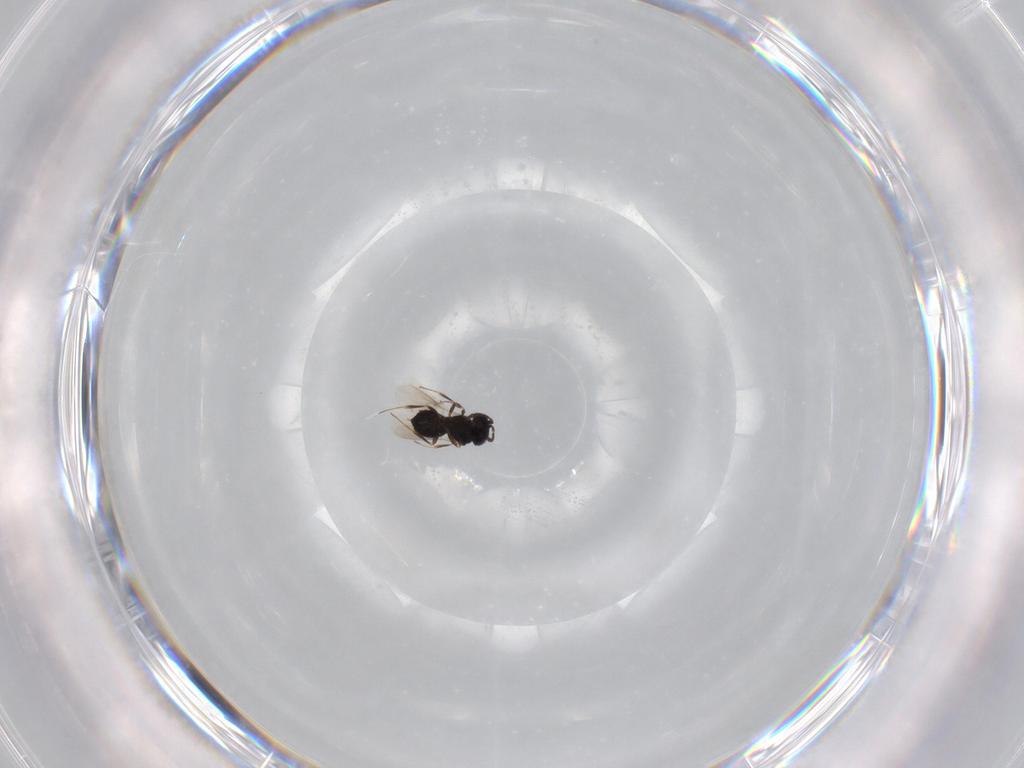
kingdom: Animalia
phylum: Arthropoda
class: Insecta
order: Hymenoptera
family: Scelionidae
